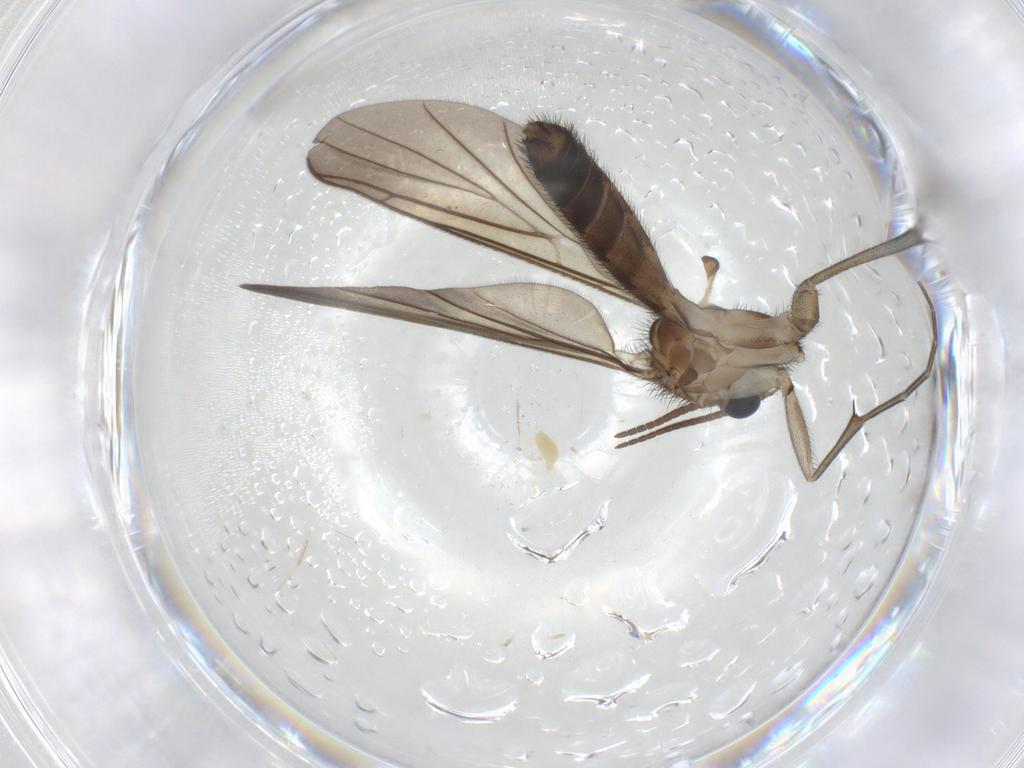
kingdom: Animalia
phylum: Arthropoda
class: Insecta
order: Diptera
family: Keroplatidae
